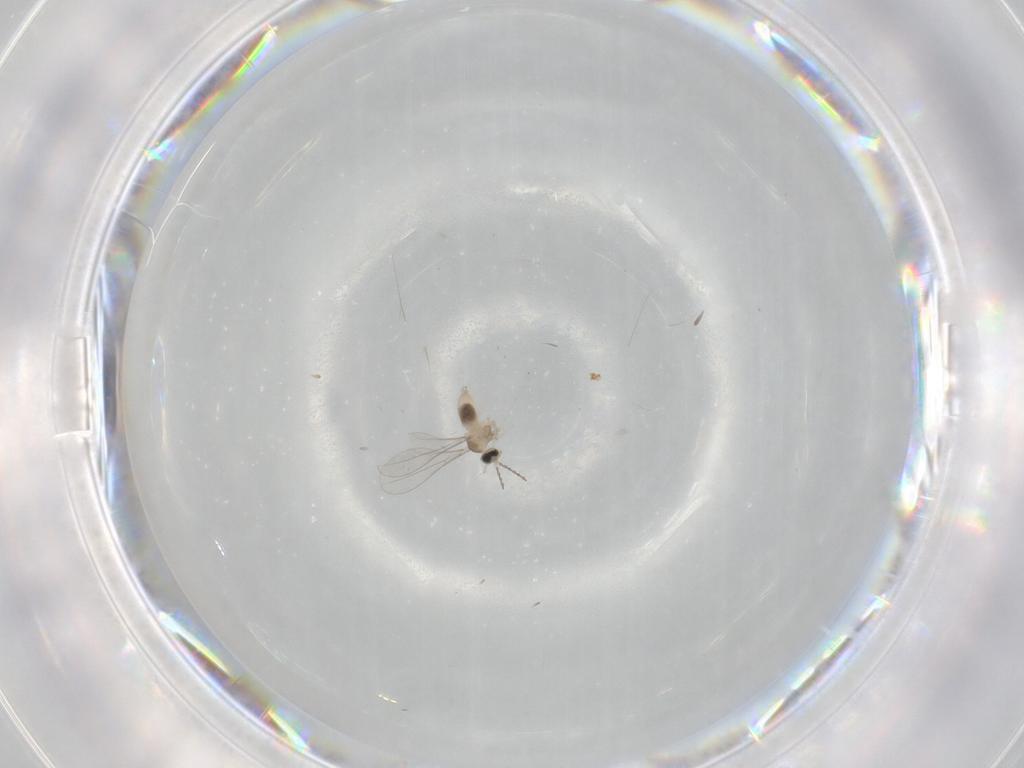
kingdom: Animalia
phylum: Arthropoda
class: Insecta
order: Diptera
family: Cecidomyiidae
